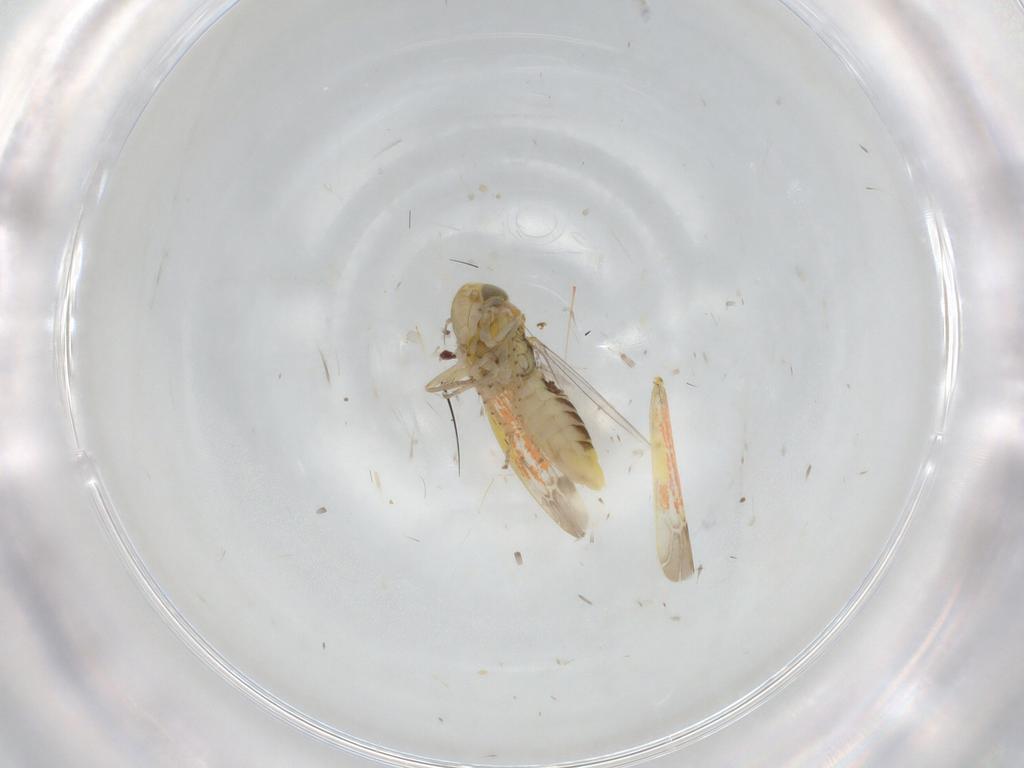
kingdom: Animalia
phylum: Arthropoda
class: Insecta
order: Hemiptera
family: Cicadellidae
